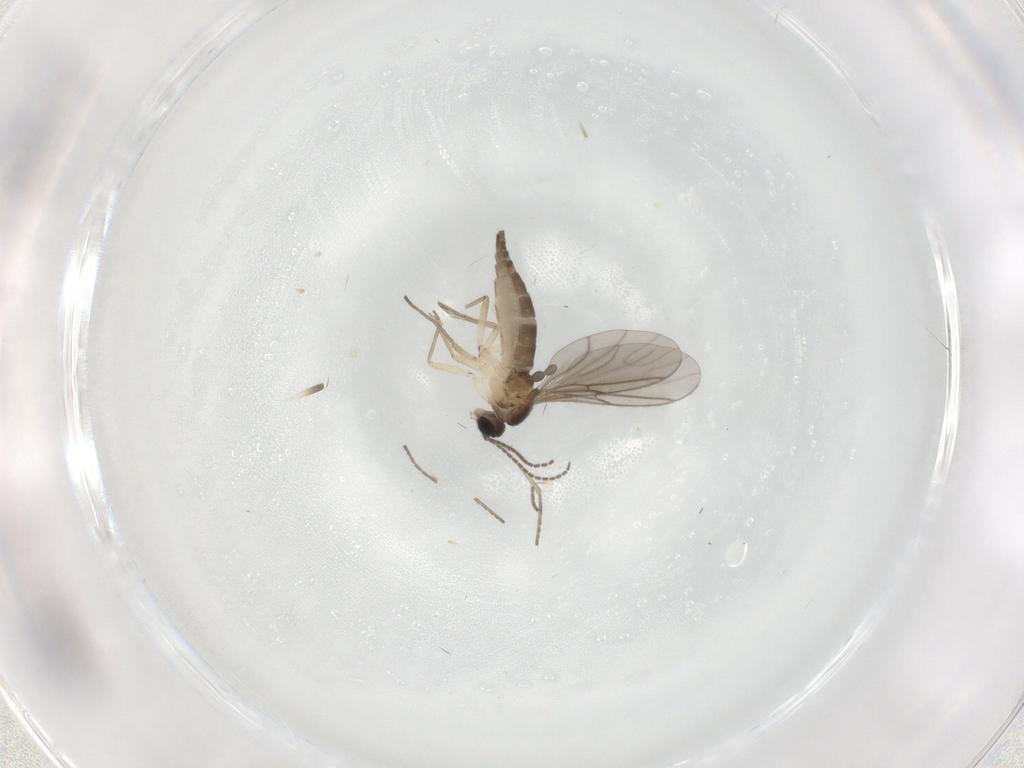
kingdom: Animalia
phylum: Arthropoda
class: Insecta
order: Diptera
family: Sciaridae
